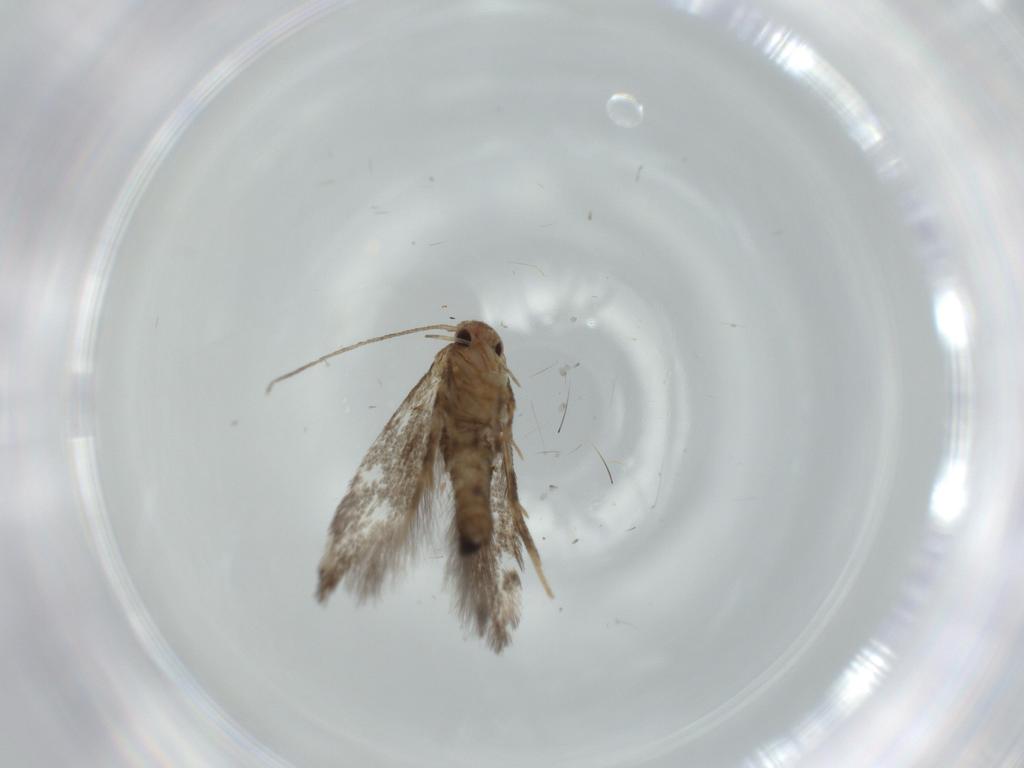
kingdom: Animalia
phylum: Arthropoda
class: Insecta
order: Lepidoptera
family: Cosmopterigidae
